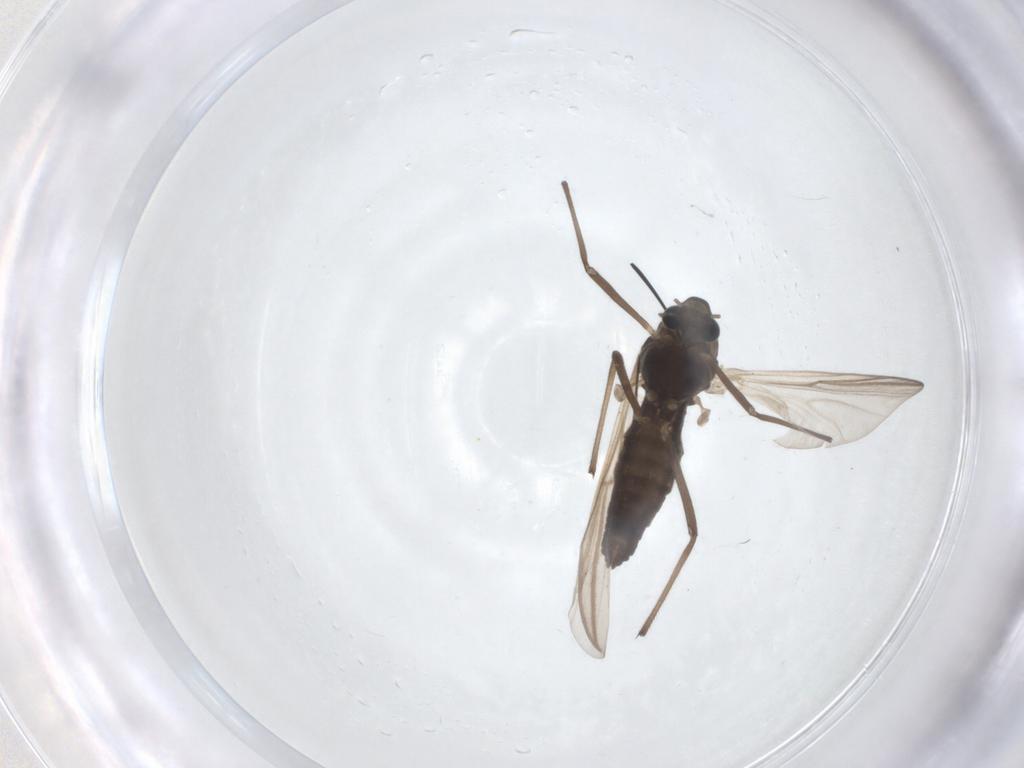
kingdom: Animalia
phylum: Arthropoda
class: Insecta
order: Diptera
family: Chironomidae
